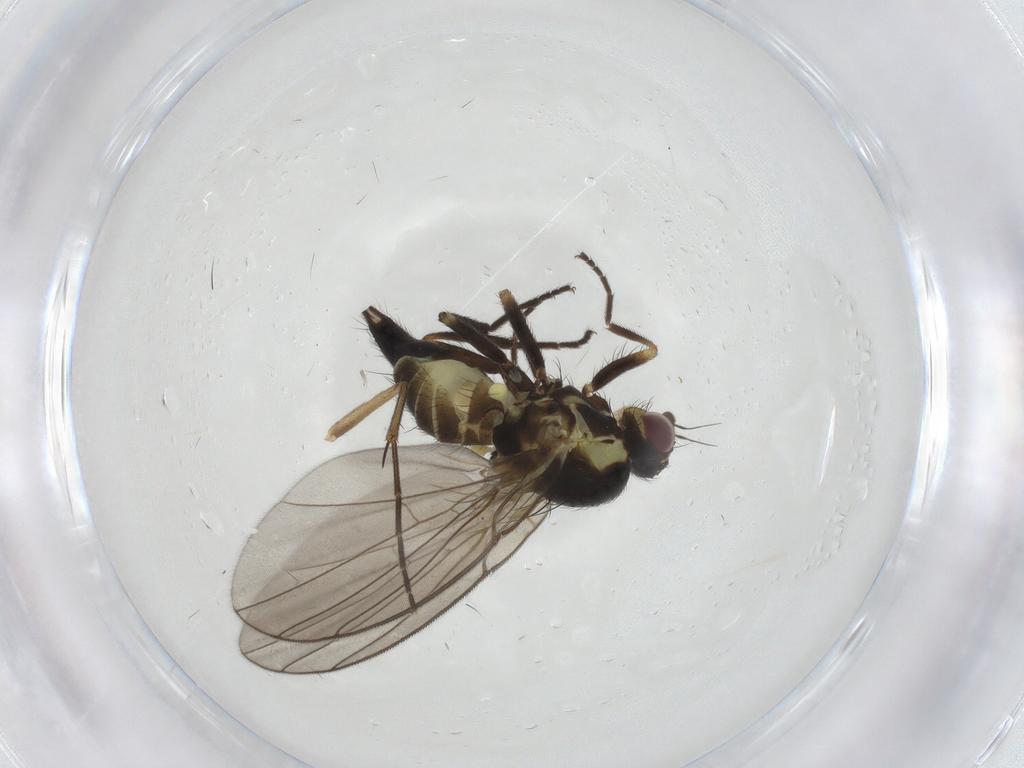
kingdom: Animalia
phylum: Arthropoda
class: Insecta
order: Diptera
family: Agromyzidae
